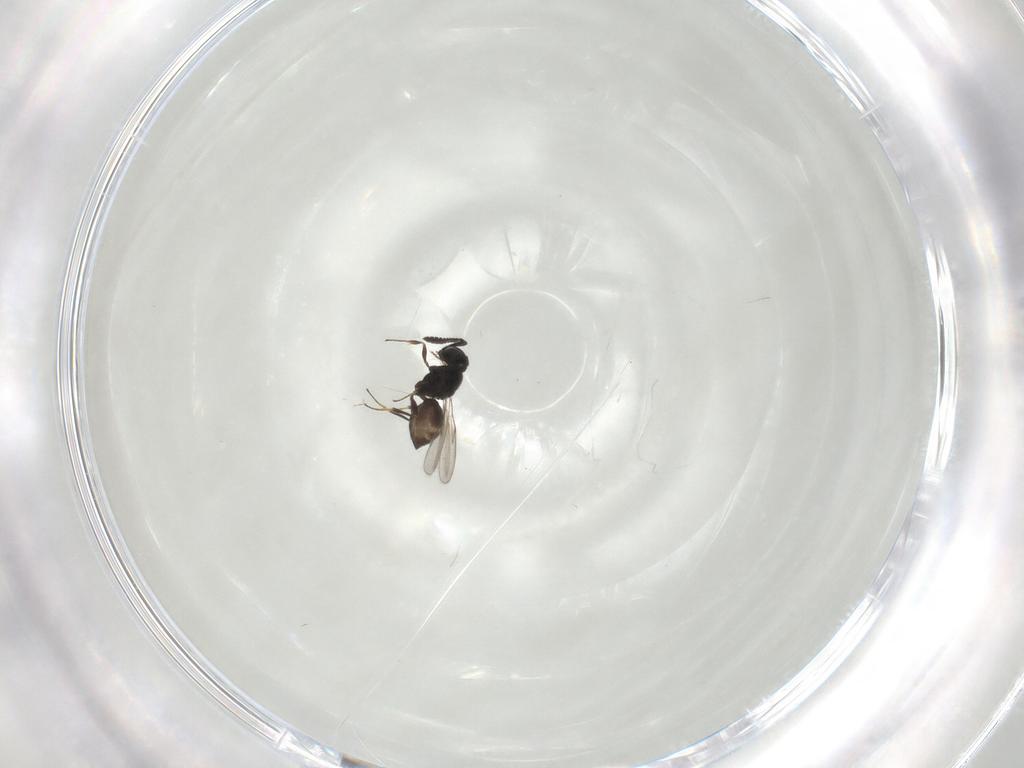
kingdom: Animalia
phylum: Arthropoda
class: Insecta
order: Hymenoptera
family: Scelionidae
